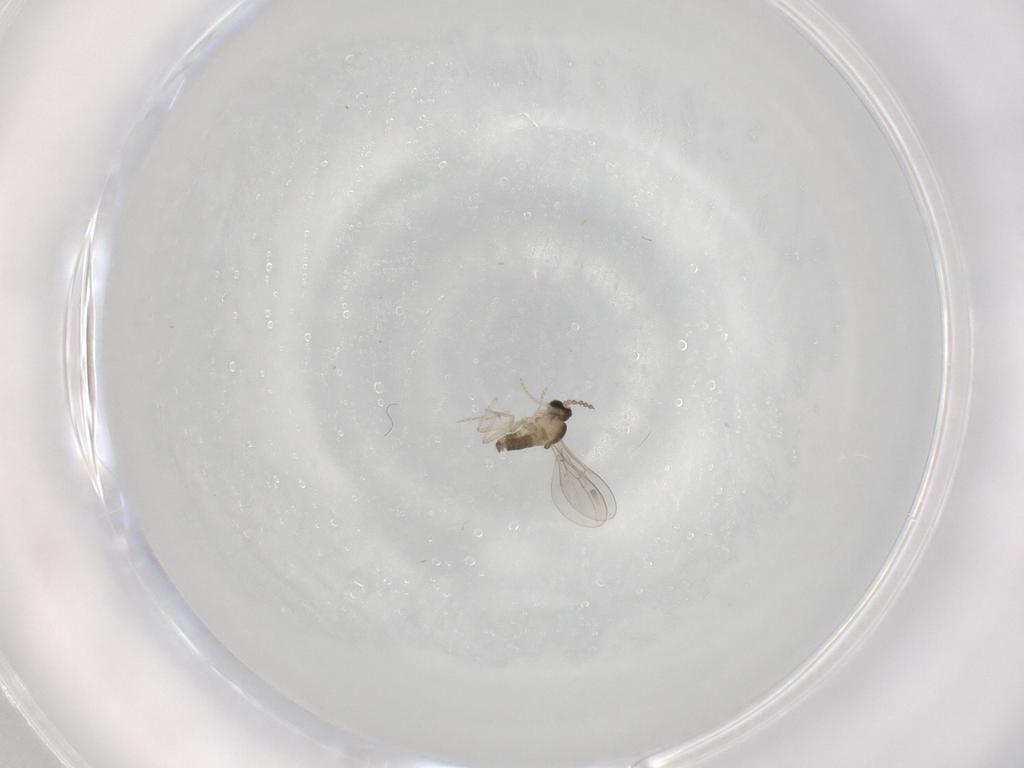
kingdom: Animalia
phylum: Arthropoda
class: Insecta
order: Diptera
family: Cecidomyiidae
